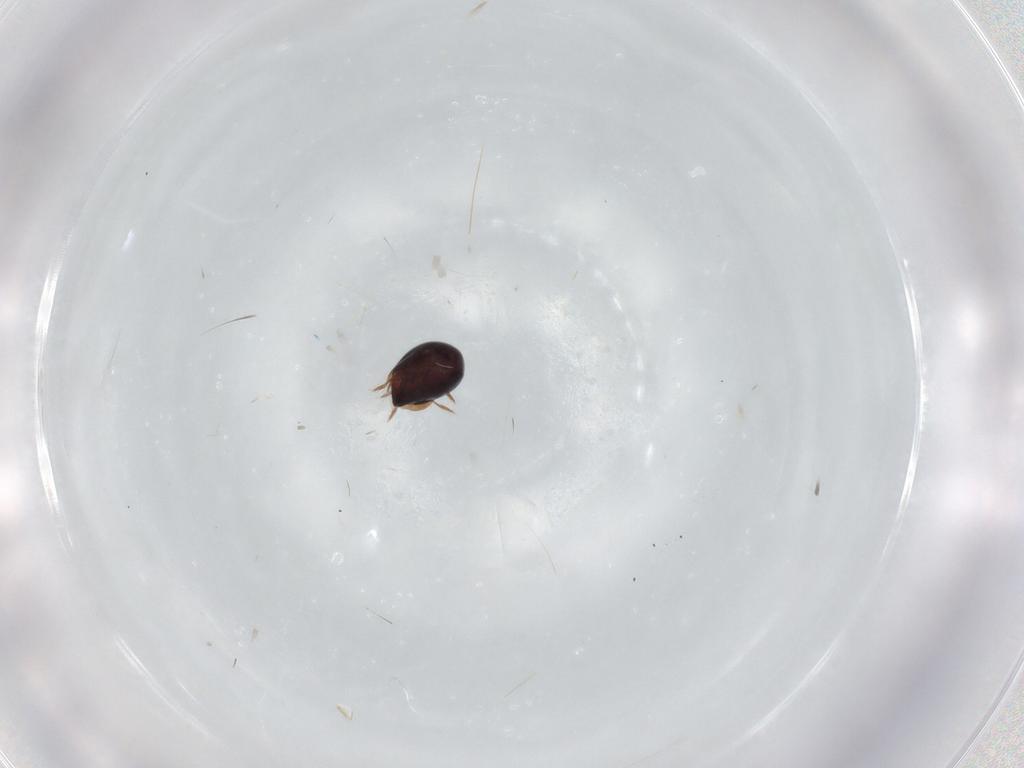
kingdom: Animalia
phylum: Arthropoda
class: Arachnida
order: Sarcoptiformes
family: Ceratozetidae
